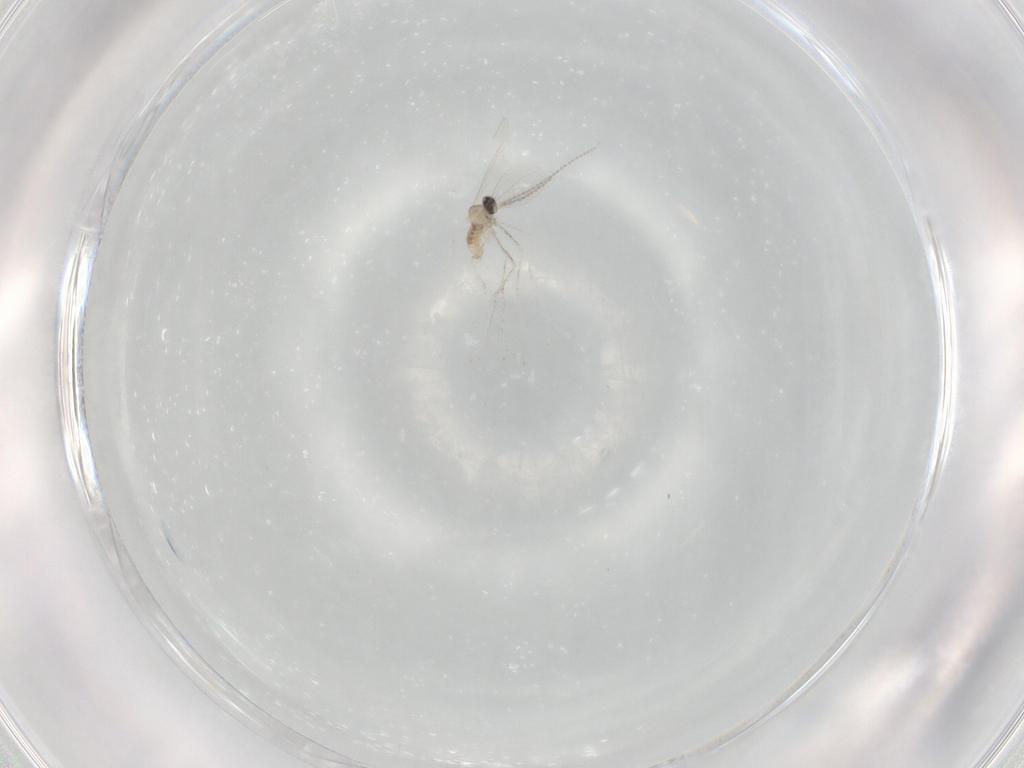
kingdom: Animalia
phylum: Arthropoda
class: Insecta
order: Diptera
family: Cecidomyiidae
